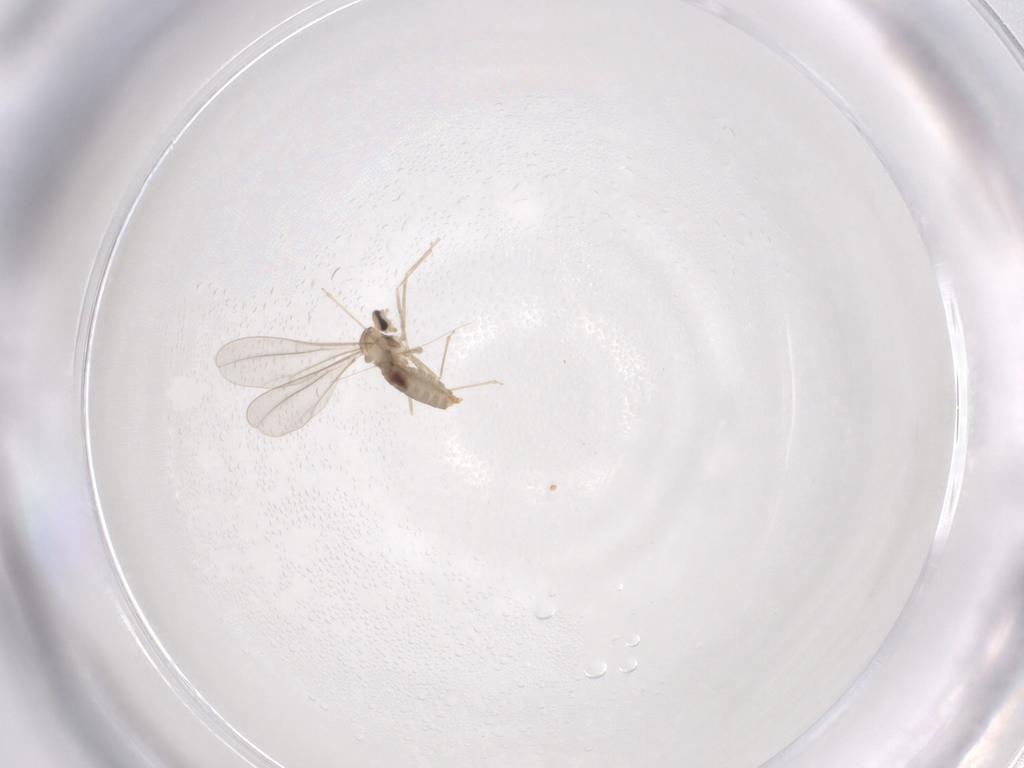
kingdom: Animalia
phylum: Arthropoda
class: Insecta
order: Diptera
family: Cecidomyiidae
